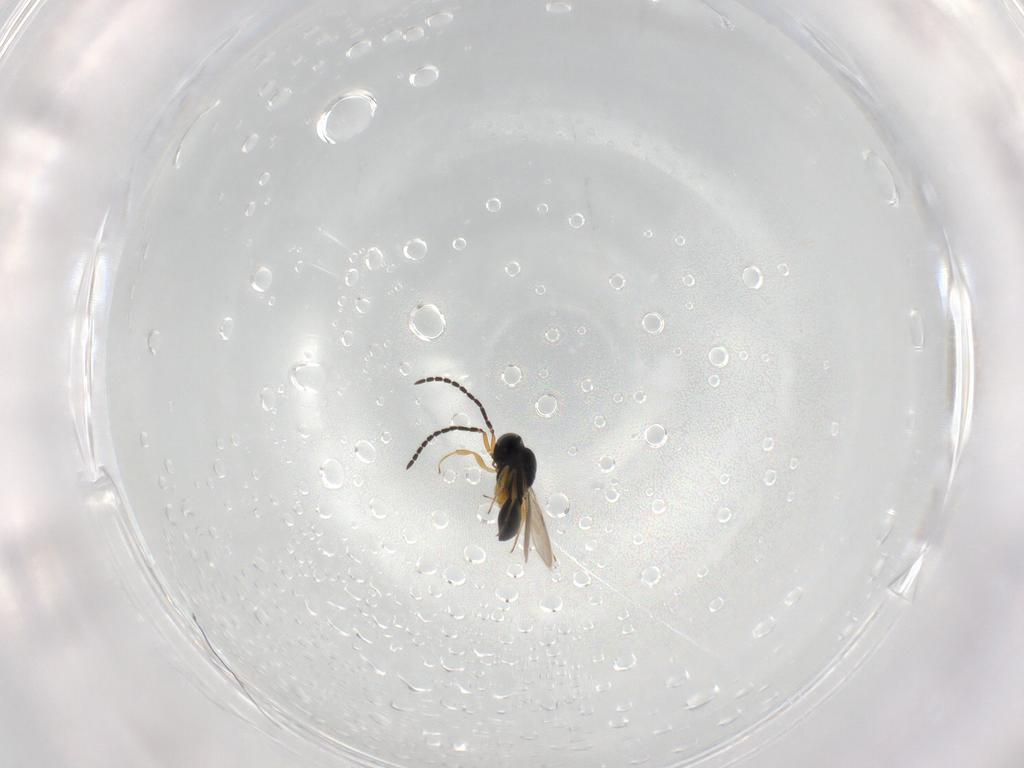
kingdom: Animalia
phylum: Arthropoda
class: Insecta
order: Hymenoptera
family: Scelionidae
